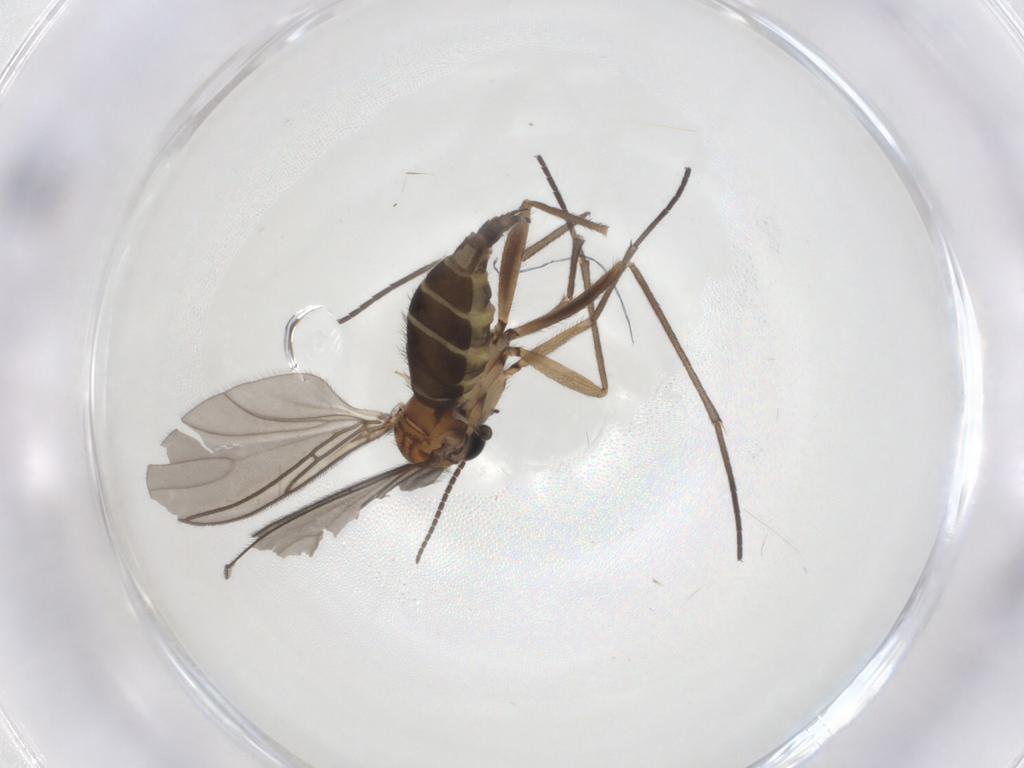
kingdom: Animalia
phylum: Arthropoda
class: Insecta
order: Diptera
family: Sciaridae
